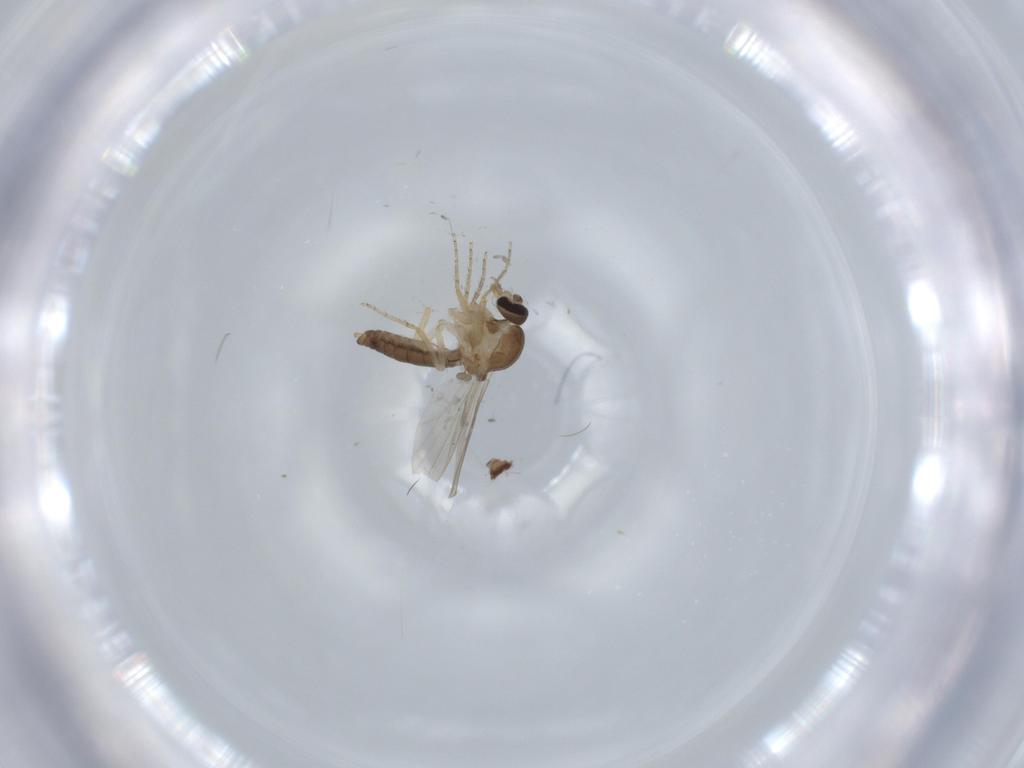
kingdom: Animalia
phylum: Arthropoda
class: Insecta
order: Diptera
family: Ceratopogonidae
